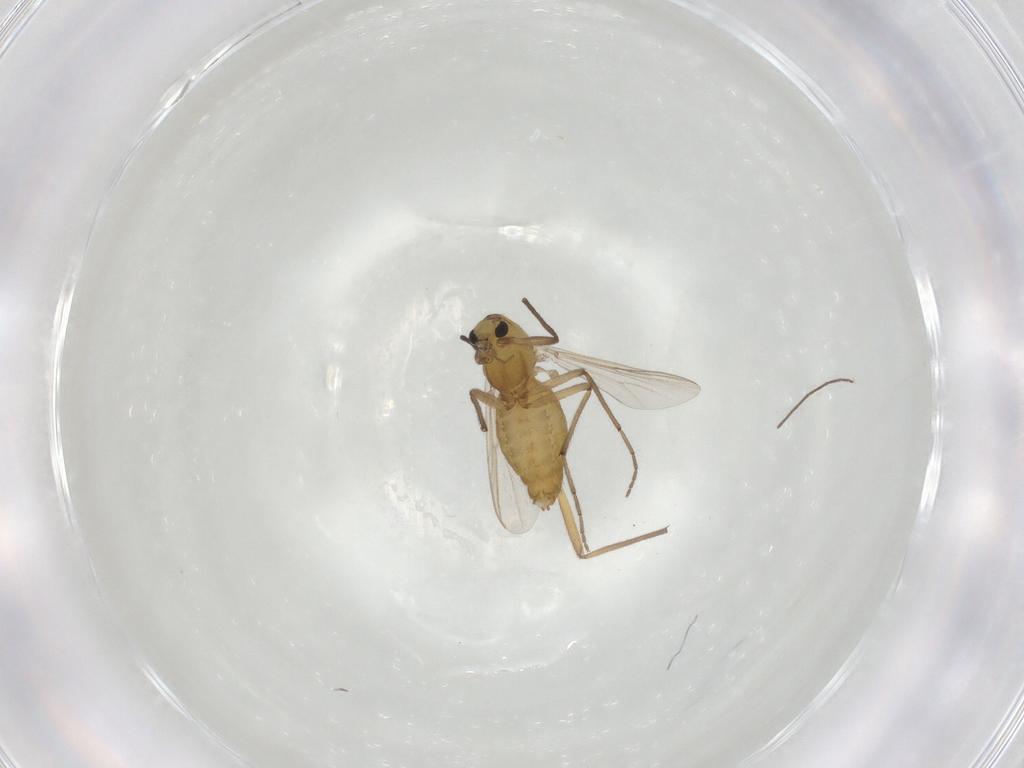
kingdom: Animalia
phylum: Arthropoda
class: Insecta
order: Diptera
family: Chironomidae
